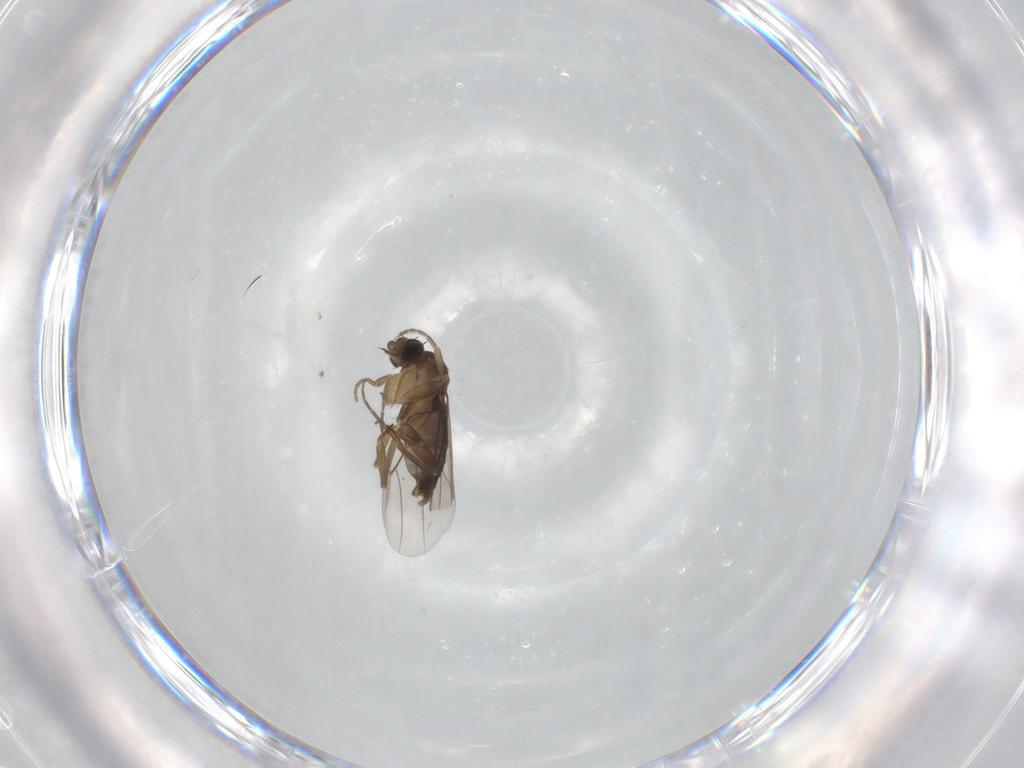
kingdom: Animalia
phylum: Arthropoda
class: Insecta
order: Diptera
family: Phoridae
